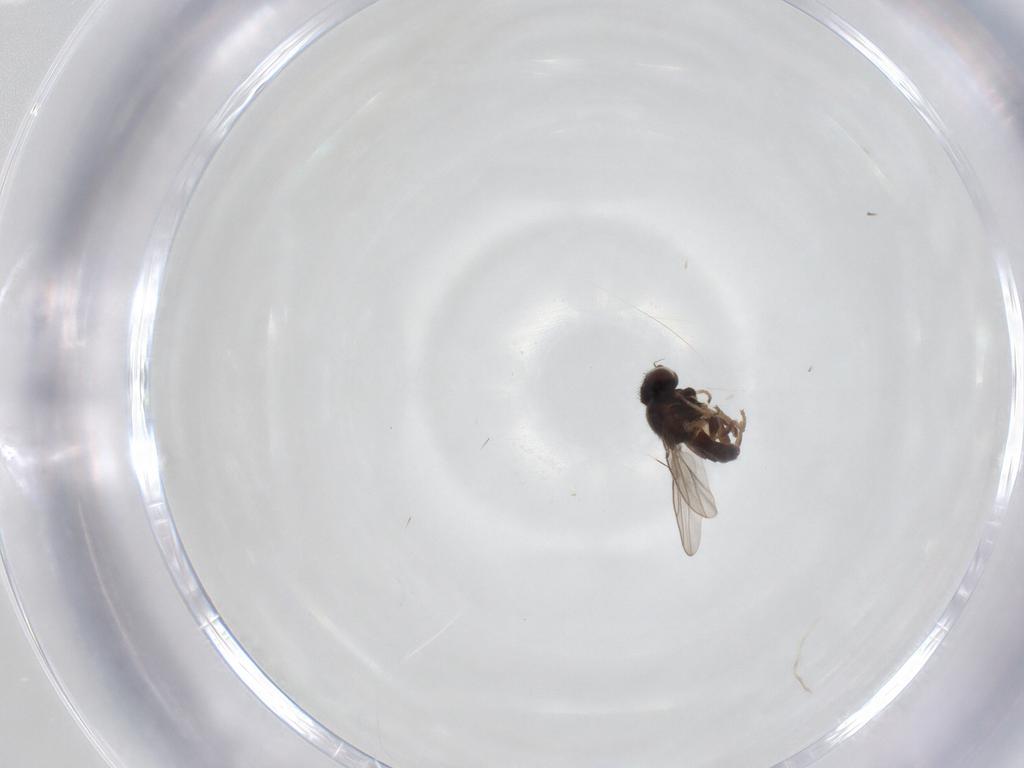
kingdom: Animalia
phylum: Arthropoda
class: Insecta
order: Diptera
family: Chloropidae
